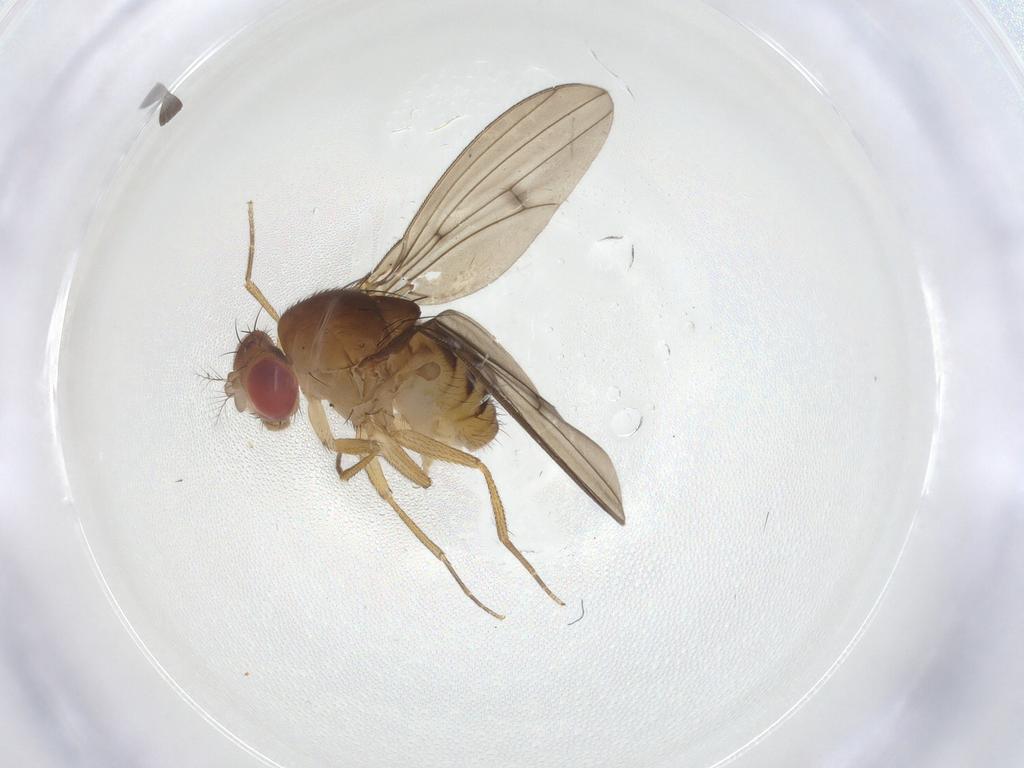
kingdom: Animalia
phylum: Arthropoda
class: Insecta
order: Diptera
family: Drosophilidae
